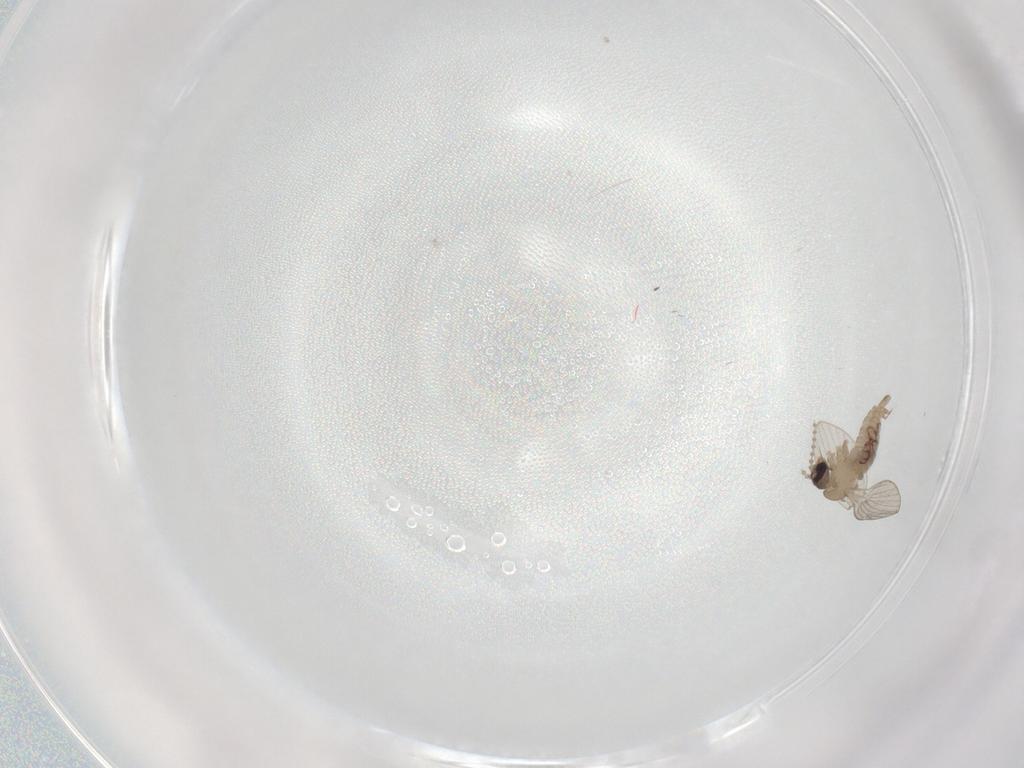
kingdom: Animalia
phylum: Arthropoda
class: Insecta
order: Diptera
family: Psychodidae
